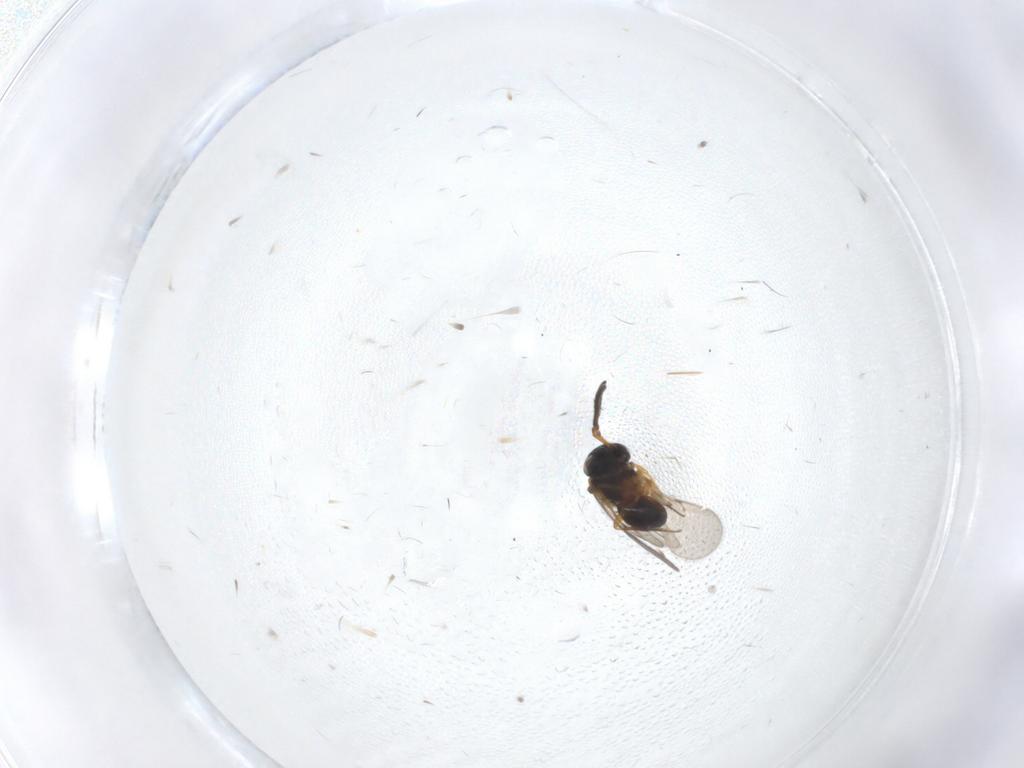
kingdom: Animalia
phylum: Arthropoda
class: Insecta
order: Hymenoptera
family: Scelionidae
